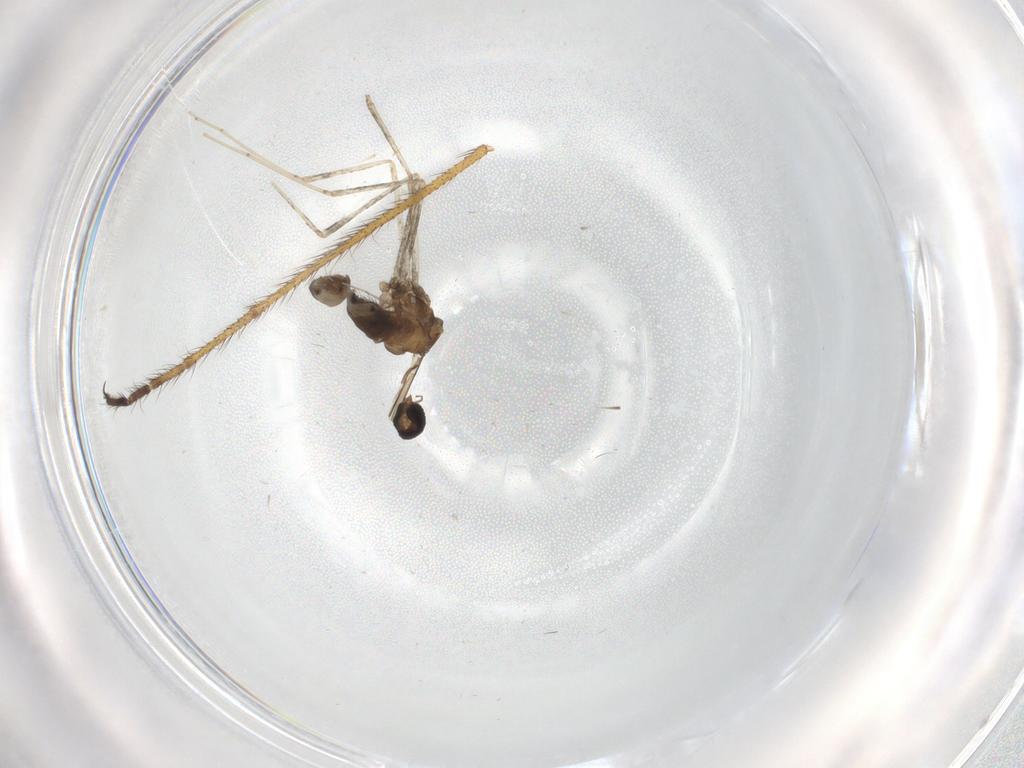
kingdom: Animalia
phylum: Arthropoda
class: Insecta
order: Diptera
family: Cecidomyiidae
